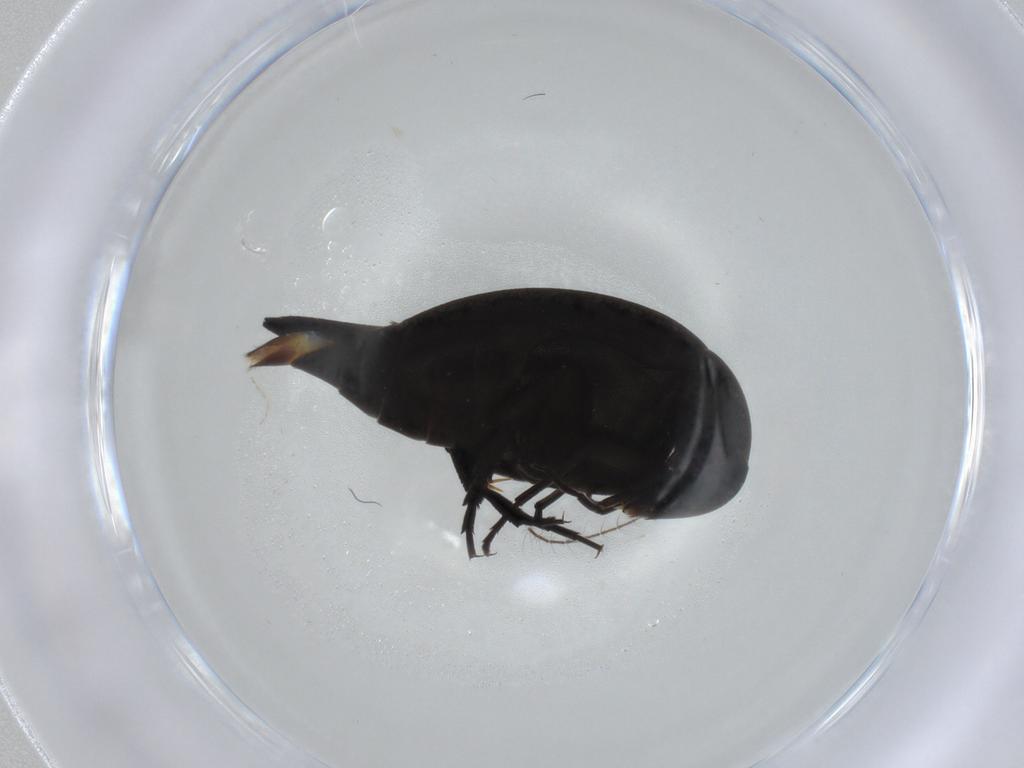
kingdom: Animalia
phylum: Arthropoda
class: Insecta
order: Coleoptera
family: Mordellidae
